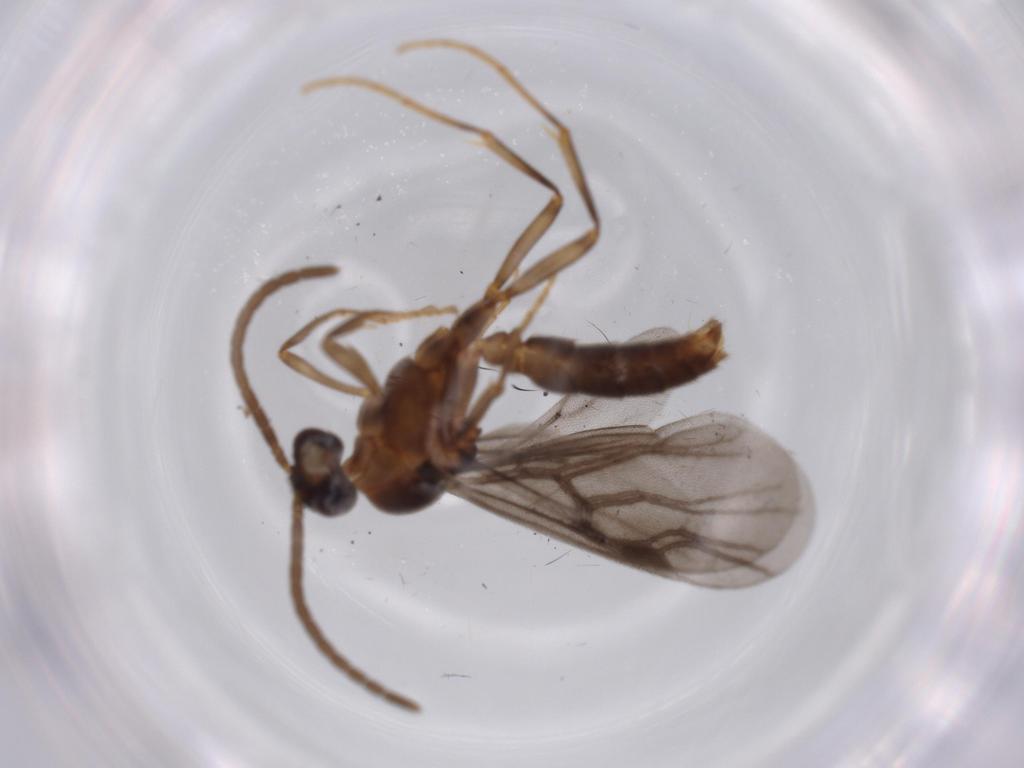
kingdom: Animalia
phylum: Arthropoda
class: Insecta
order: Hymenoptera
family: Formicidae
